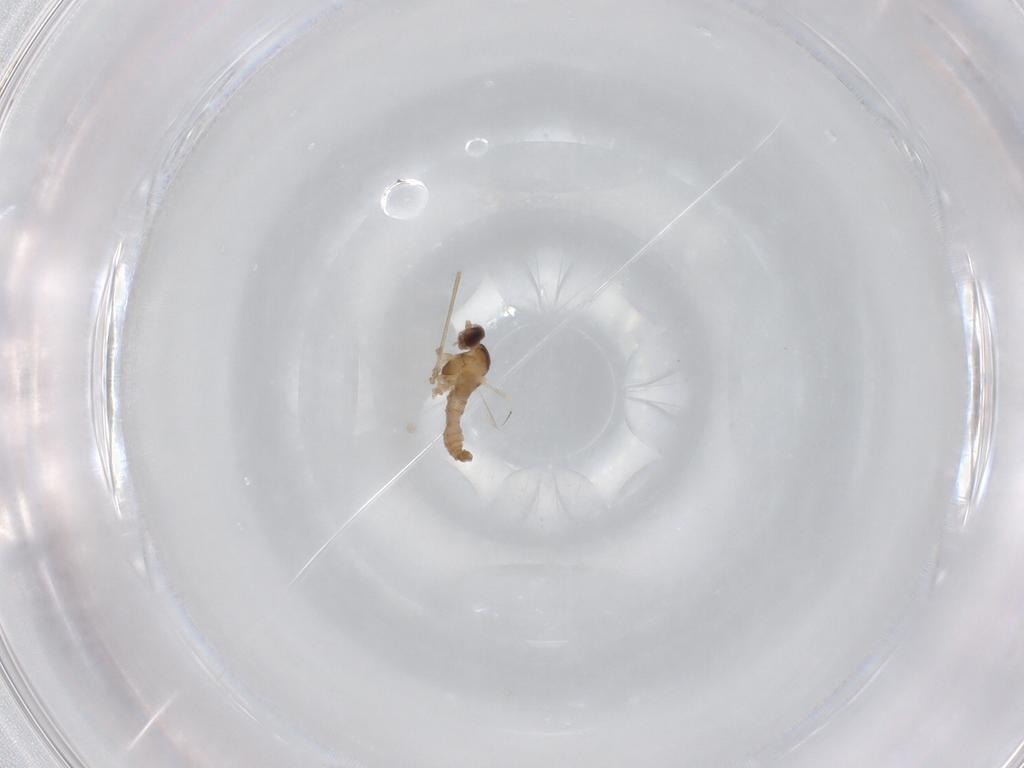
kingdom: Animalia
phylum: Arthropoda
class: Insecta
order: Diptera
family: Cecidomyiidae
